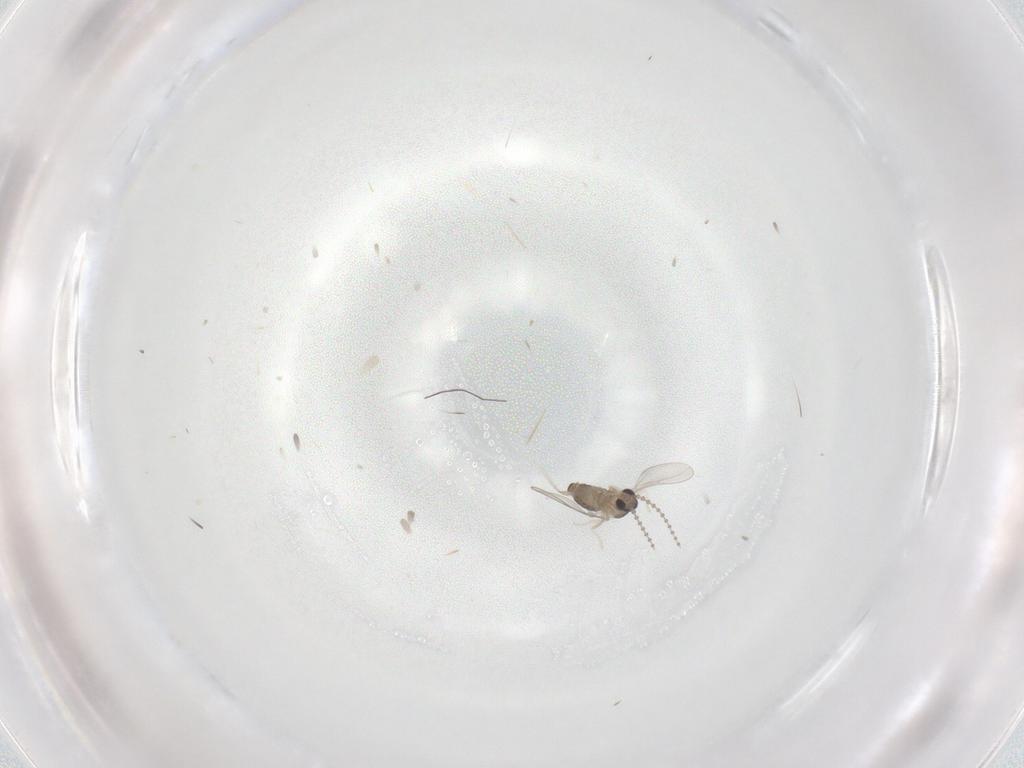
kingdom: Animalia
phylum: Arthropoda
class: Insecta
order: Diptera
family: Cecidomyiidae
